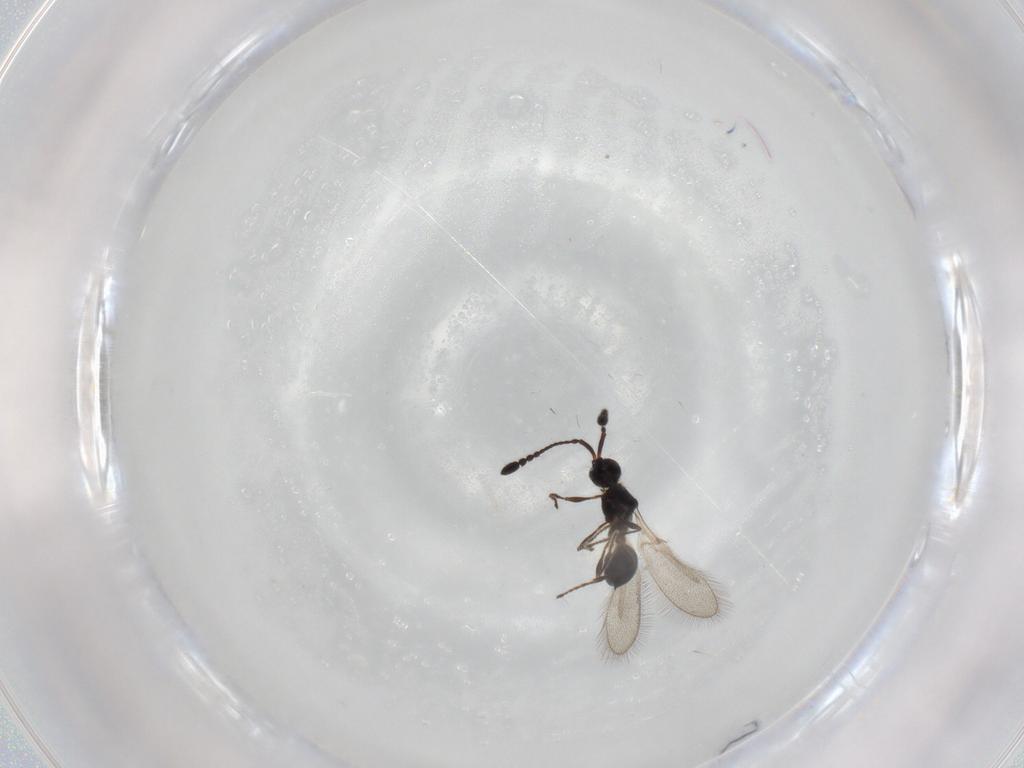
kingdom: Animalia
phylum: Arthropoda
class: Insecta
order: Hymenoptera
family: Diapriidae
